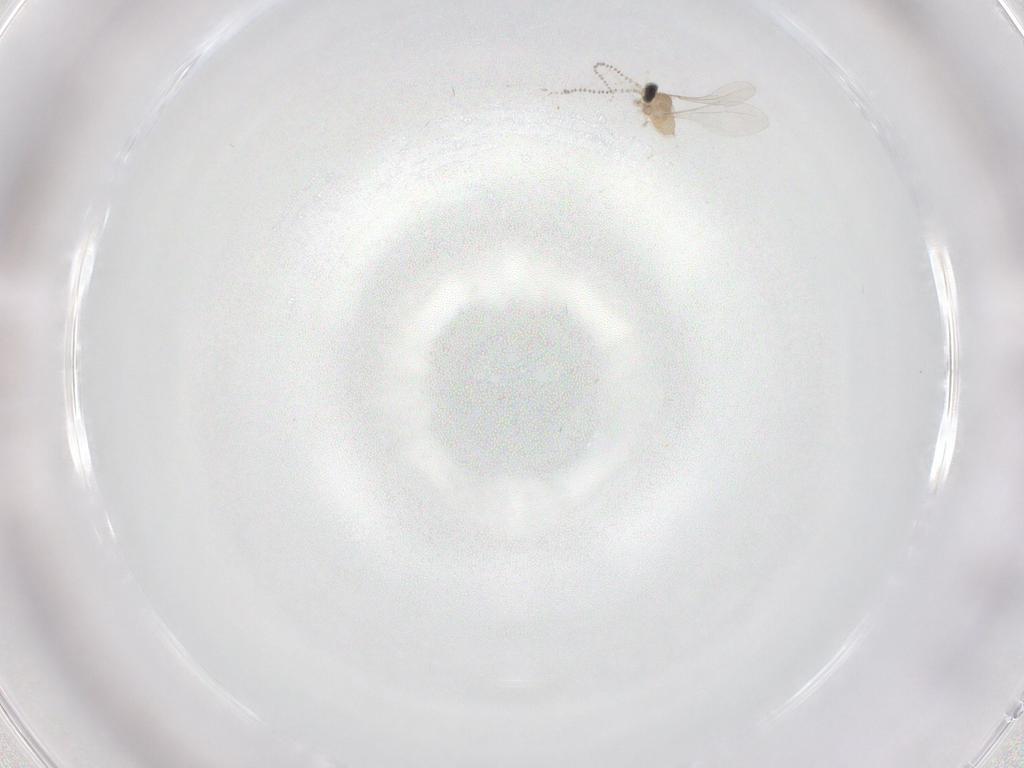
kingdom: Animalia
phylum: Arthropoda
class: Insecta
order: Diptera
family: Cecidomyiidae
